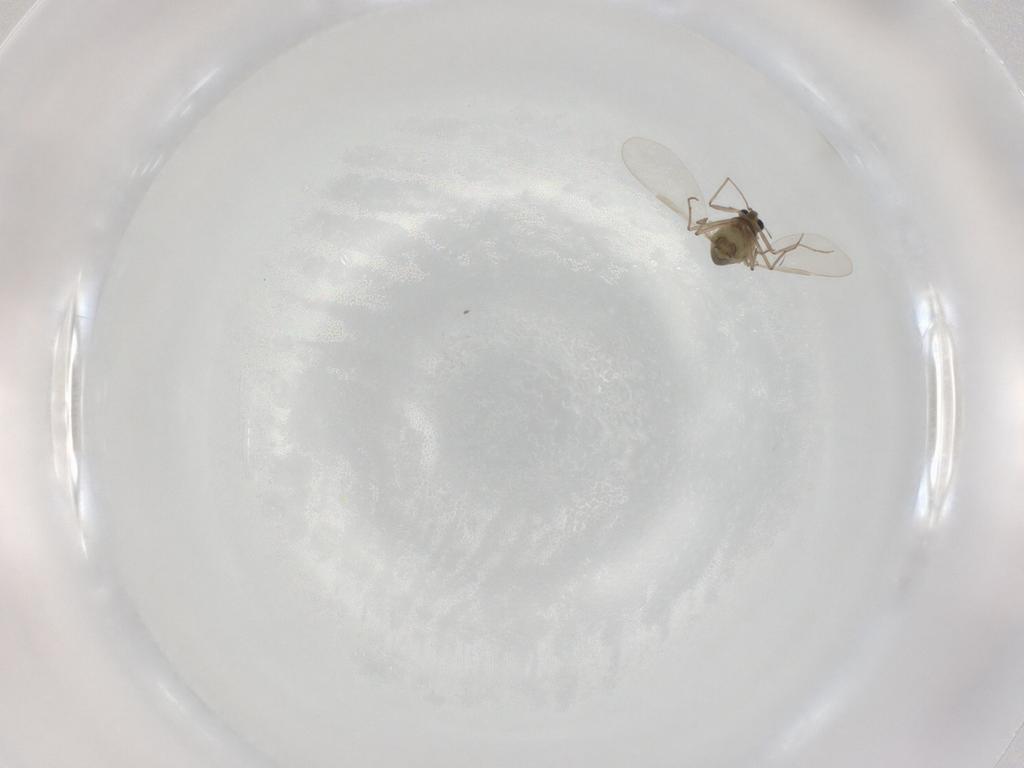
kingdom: Animalia
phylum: Arthropoda
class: Insecta
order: Diptera
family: Chironomidae
